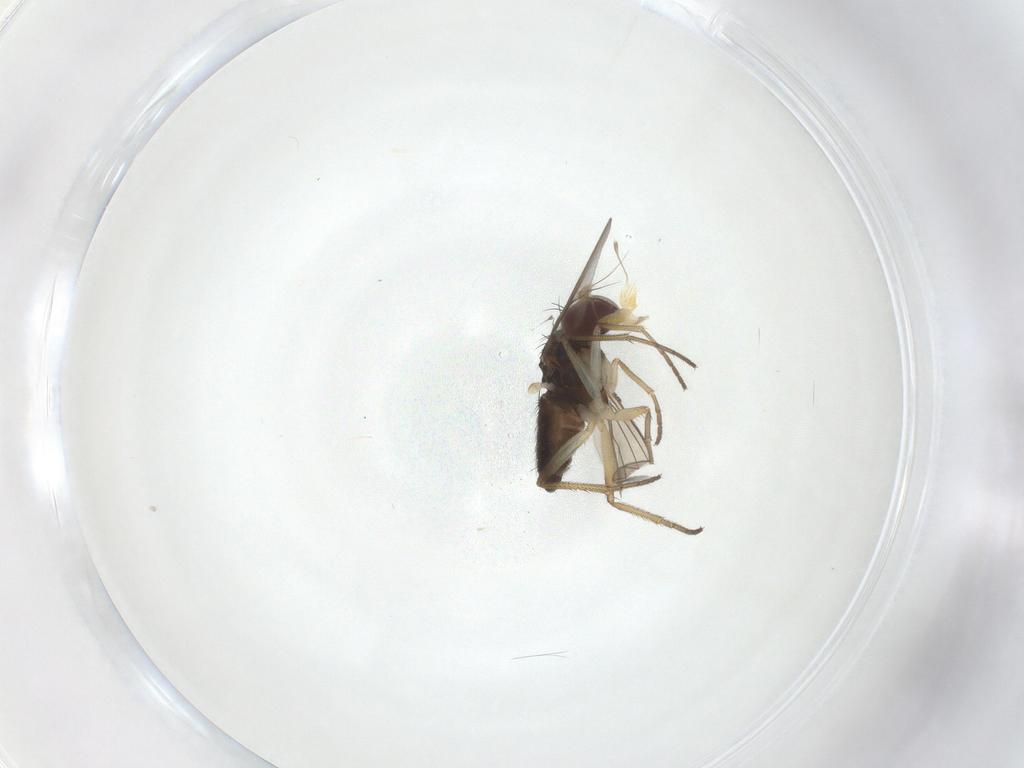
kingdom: Animalia
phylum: Arthropoda
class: Insecta
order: Diptera
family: Dolichopodidae
